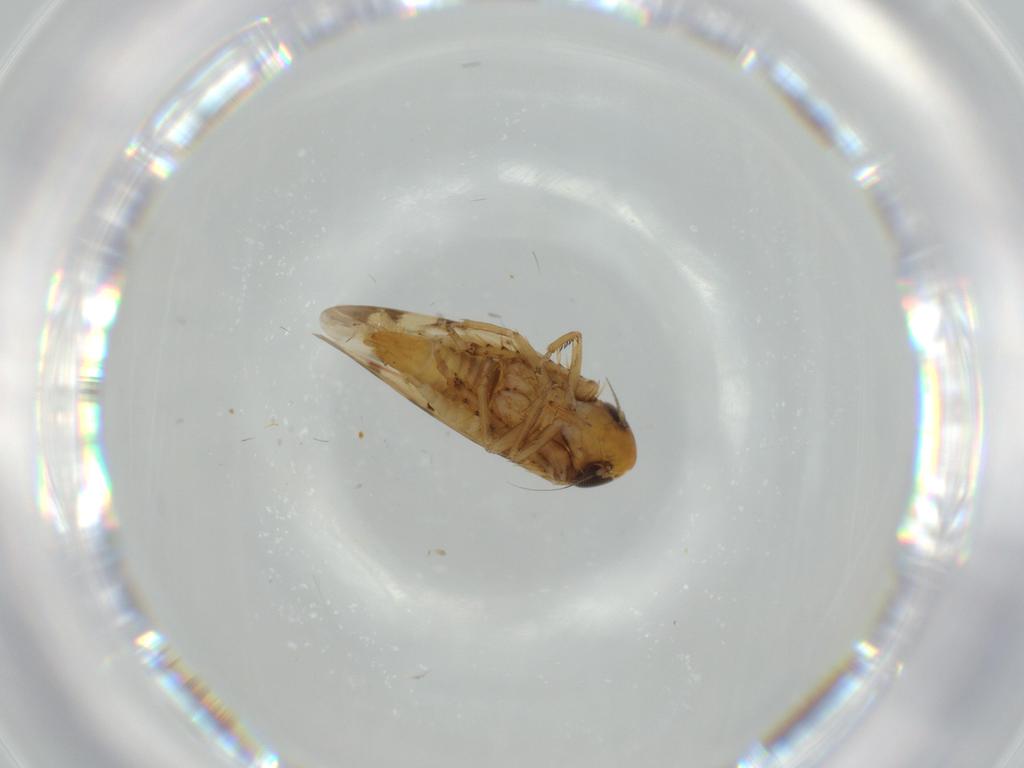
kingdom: Animalia
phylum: Arthropoda
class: Insecta
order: Hemiptera
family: Cicadellidae
